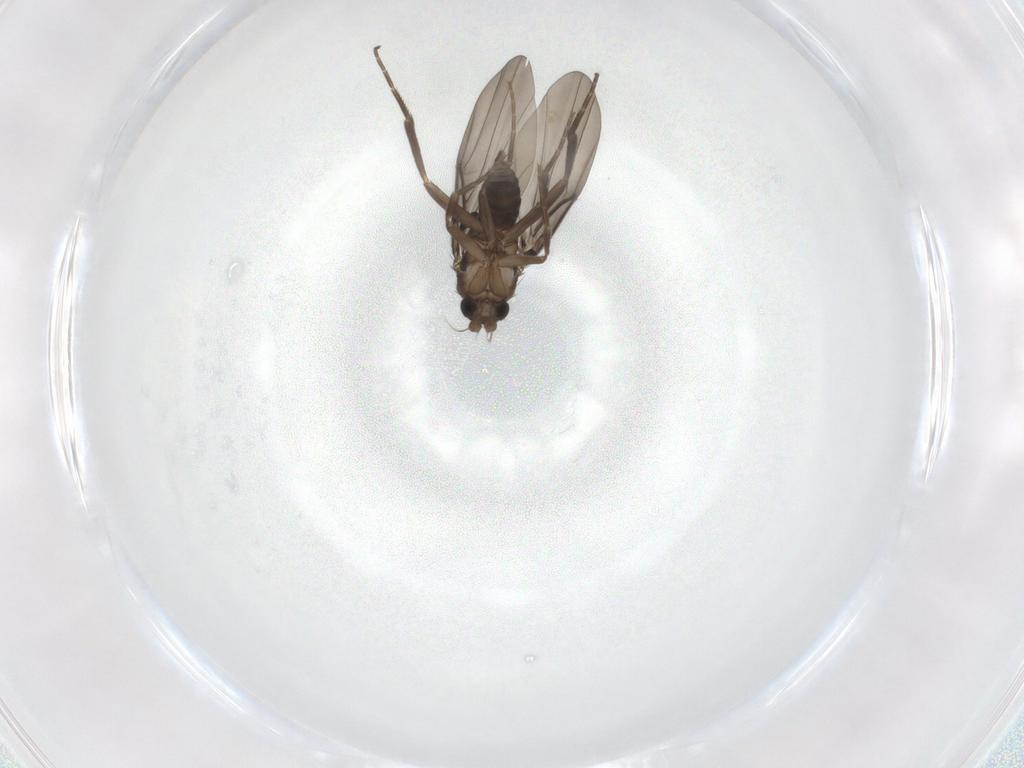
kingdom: Animalia
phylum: Arthropoda
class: Insecta
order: Diptera
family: Phoridae
